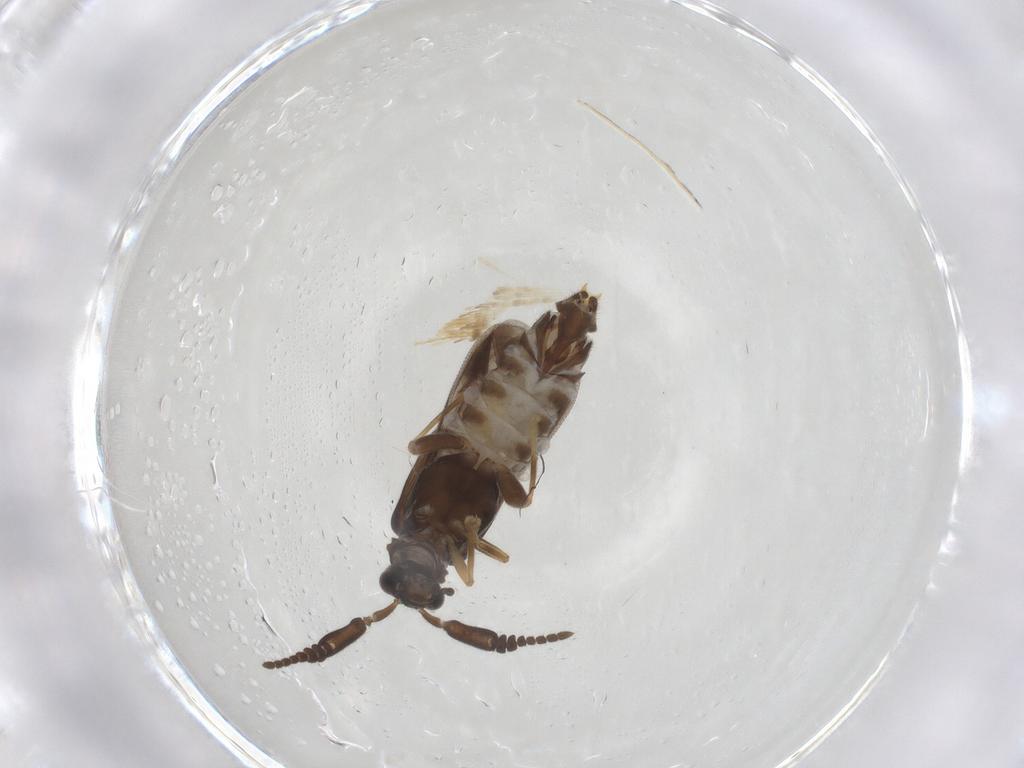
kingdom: Animalia
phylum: Arthropoda
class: Insecta
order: Coleoptera
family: Cantharidae
